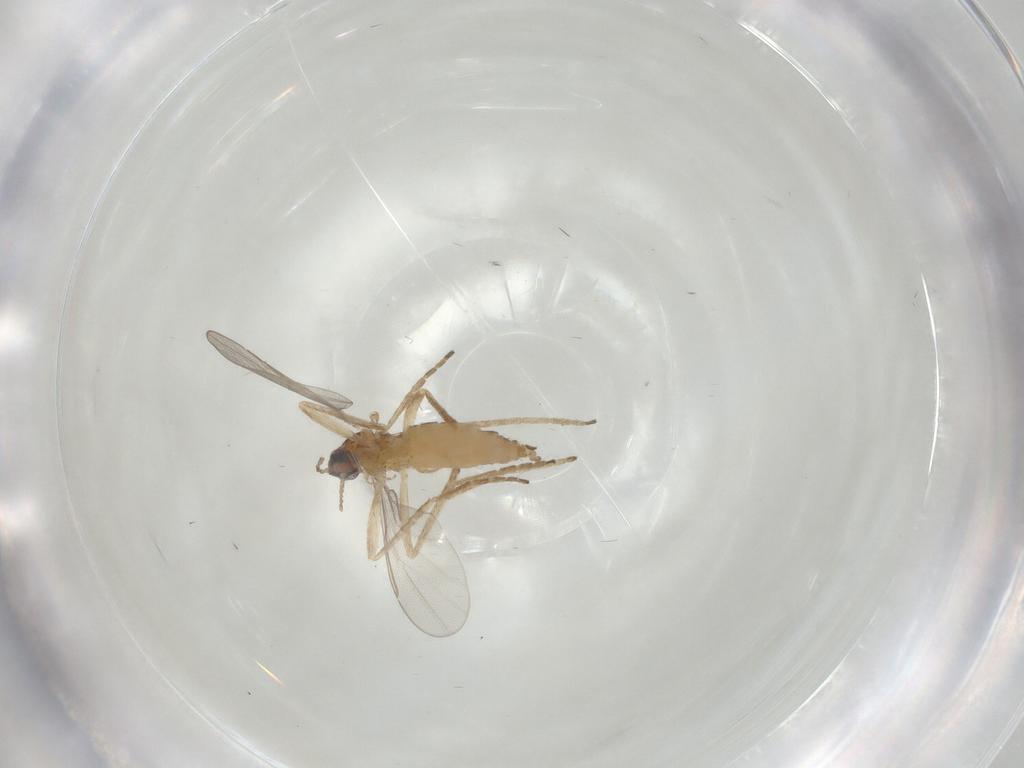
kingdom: Animalia
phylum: Arthropoda
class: Insecta
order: Diptera
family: Cecidomyiidae
